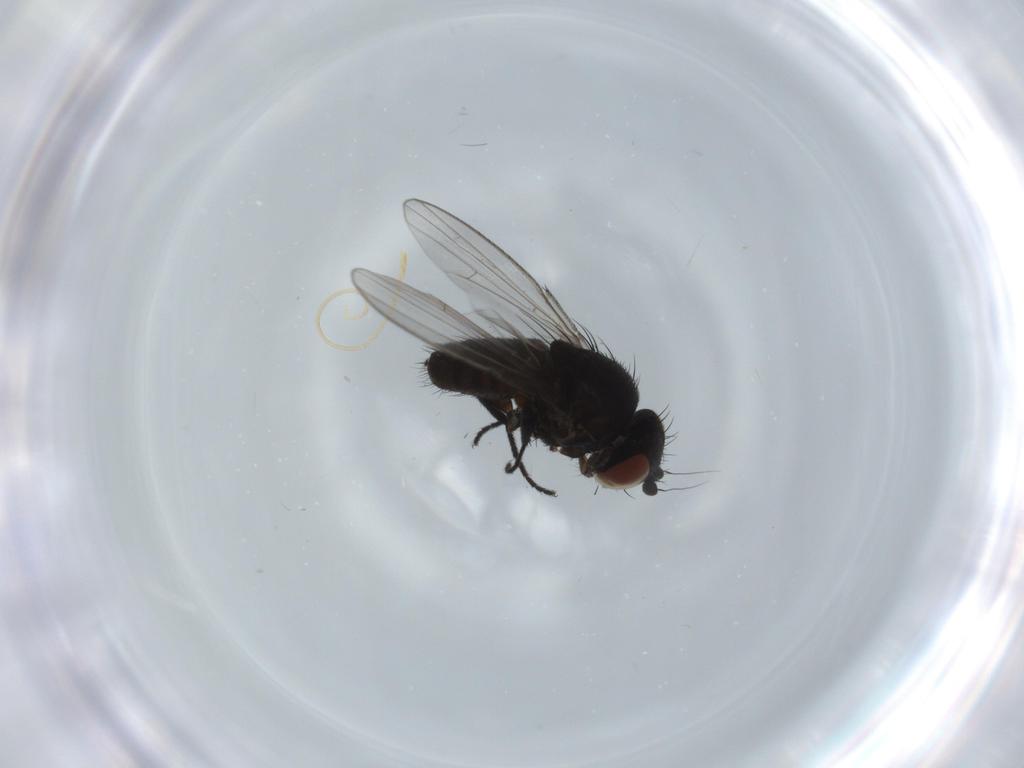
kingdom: Animalia
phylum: Arthropoda
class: Insecta
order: Diptera
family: Milichiidae
